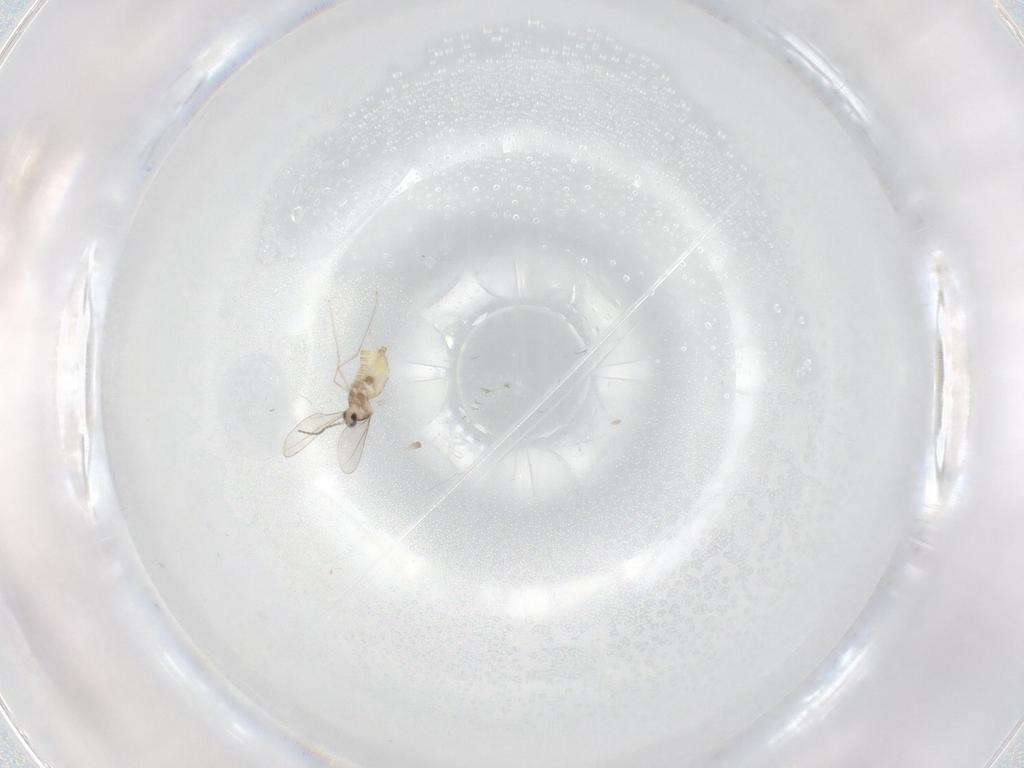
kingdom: Animalia
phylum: Arthropoda
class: Insecta
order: Diptera
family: Cecidomyiidae
